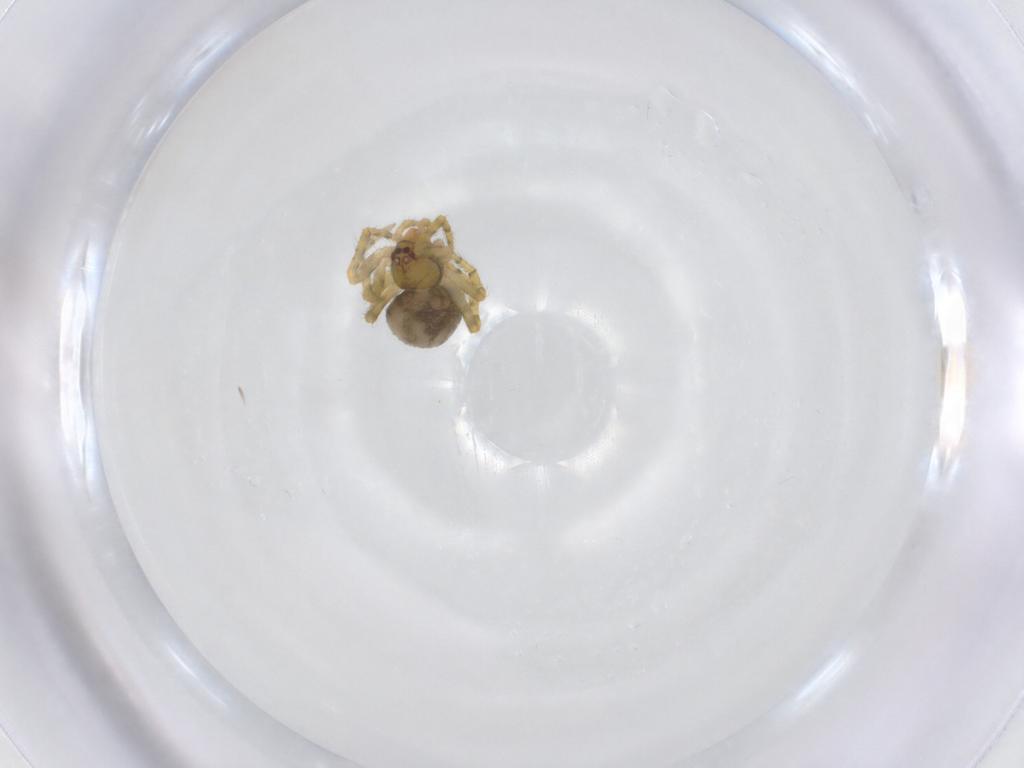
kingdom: Animalia
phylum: Arthropoda
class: Arachnida
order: Araneae
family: Theridiidae
